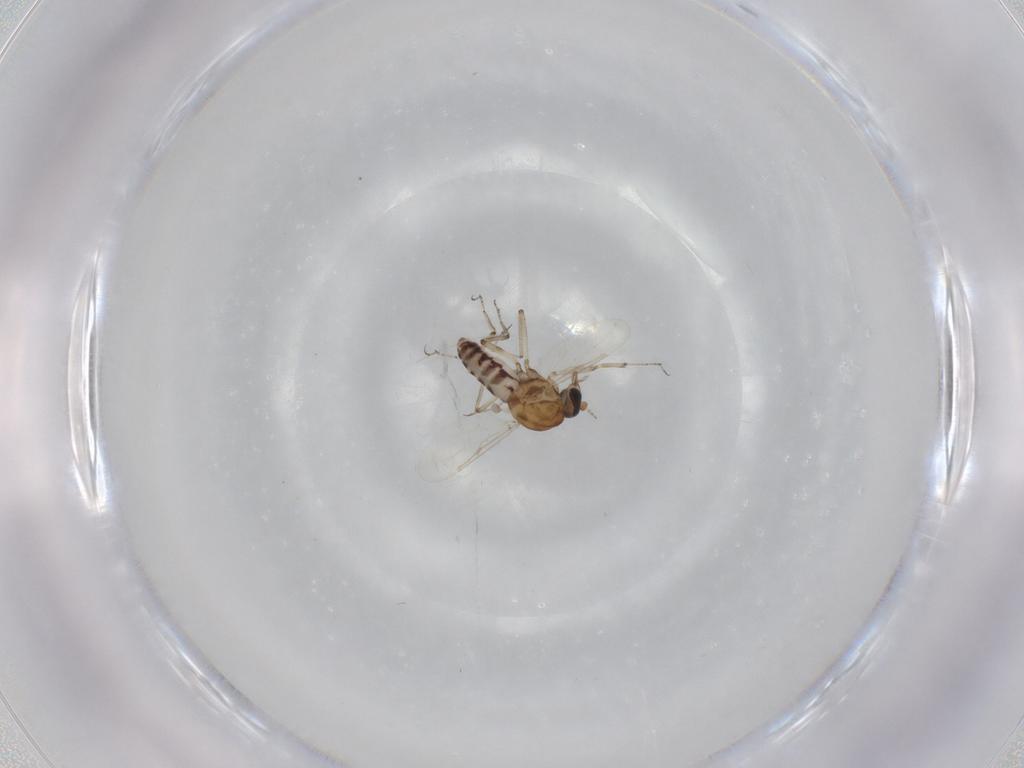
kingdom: Animalia
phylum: Arthropoda
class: Insecta
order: Diptera
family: Ceratopogonidae
